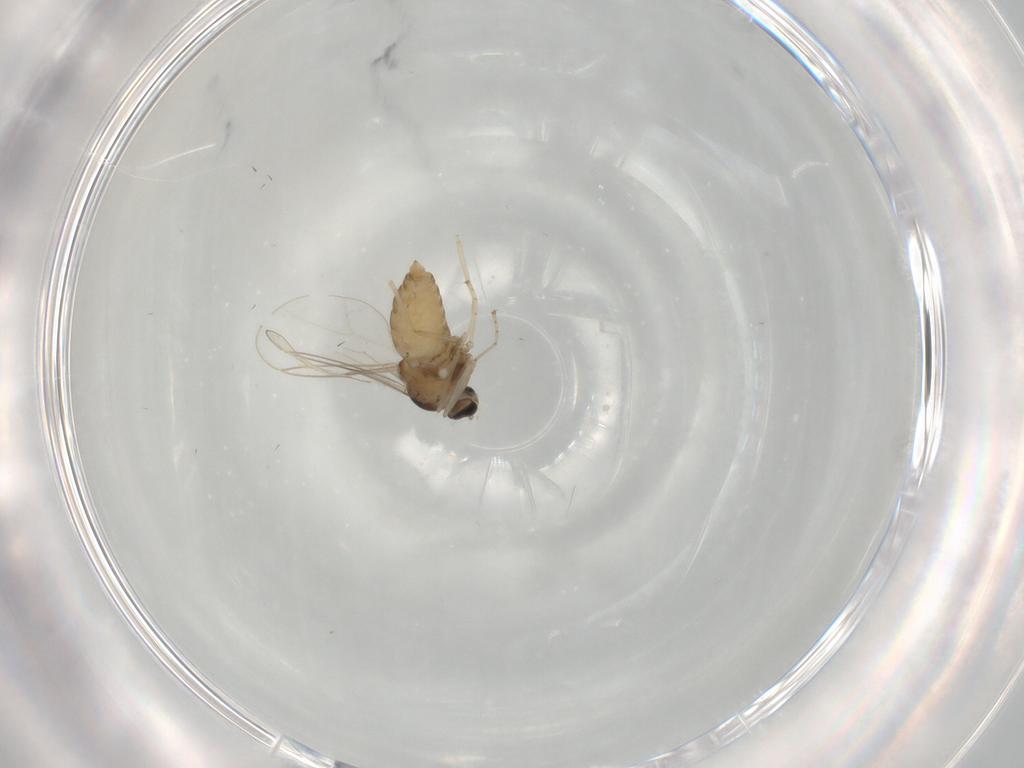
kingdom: Animalia
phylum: Arthropoda
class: Insecta
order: Diptera
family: Cecidomyiidae
